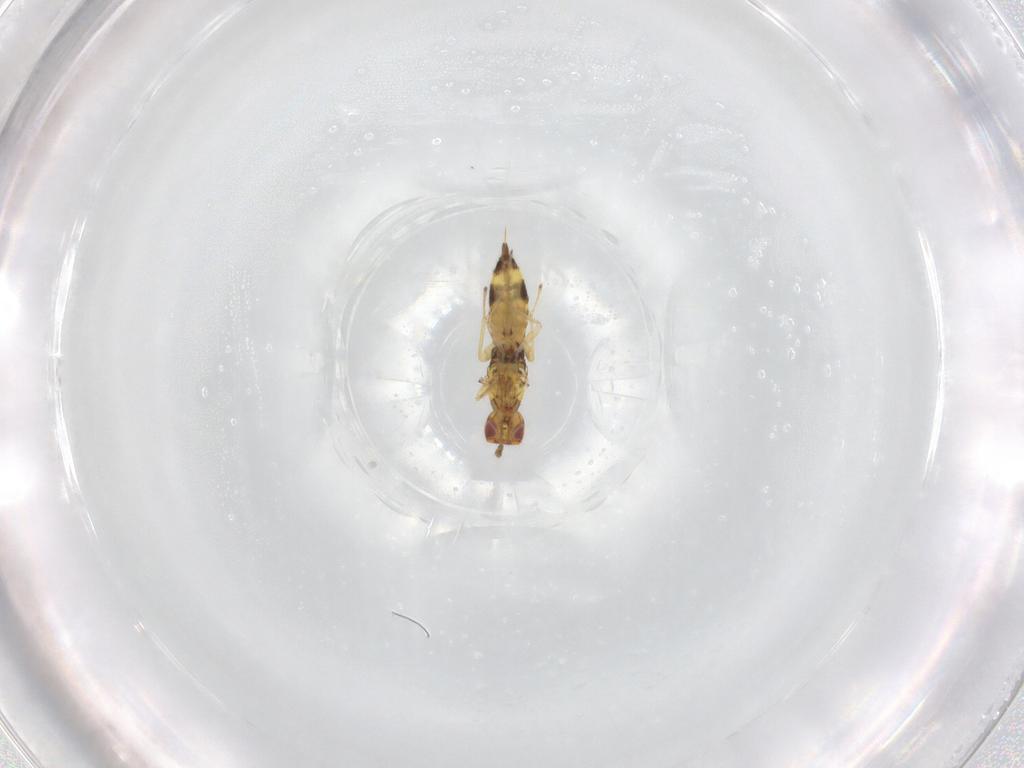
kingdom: Animalia
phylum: Arthropoda
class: Insecta
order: Hymenoptera
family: Eulophidae
